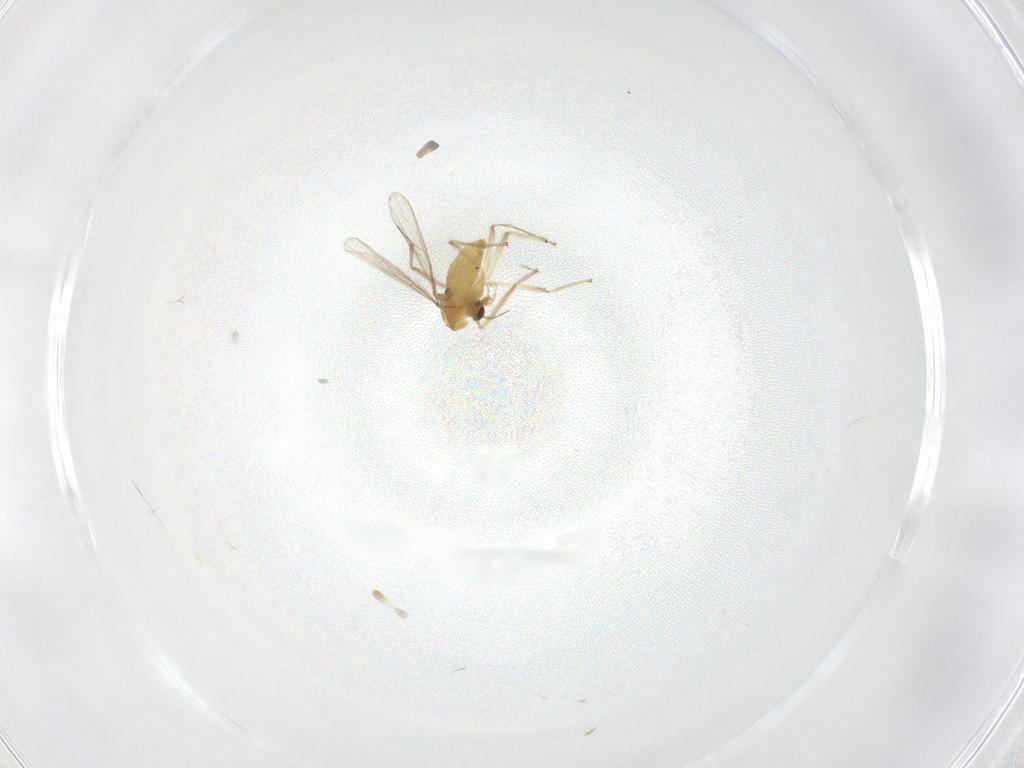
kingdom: Animalia
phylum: Arthropoda
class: Insecta
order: Diptera
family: Chironomidae
